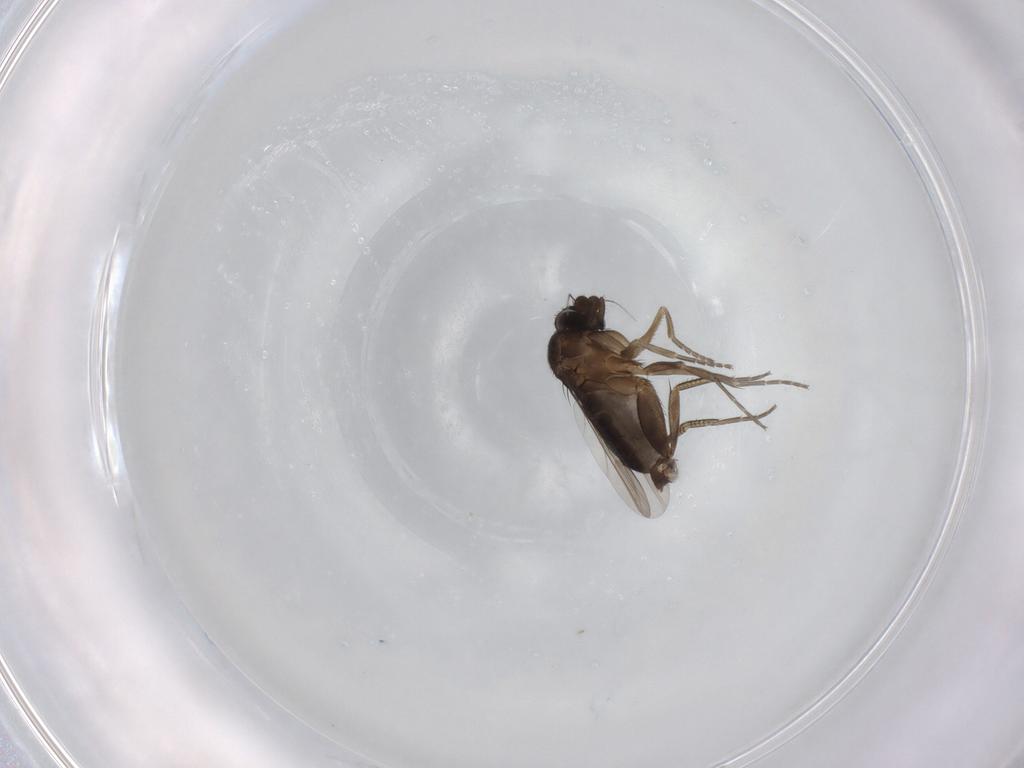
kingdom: Animalia
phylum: Arthropoda
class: Insecta
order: Diptera
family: Phoridae
